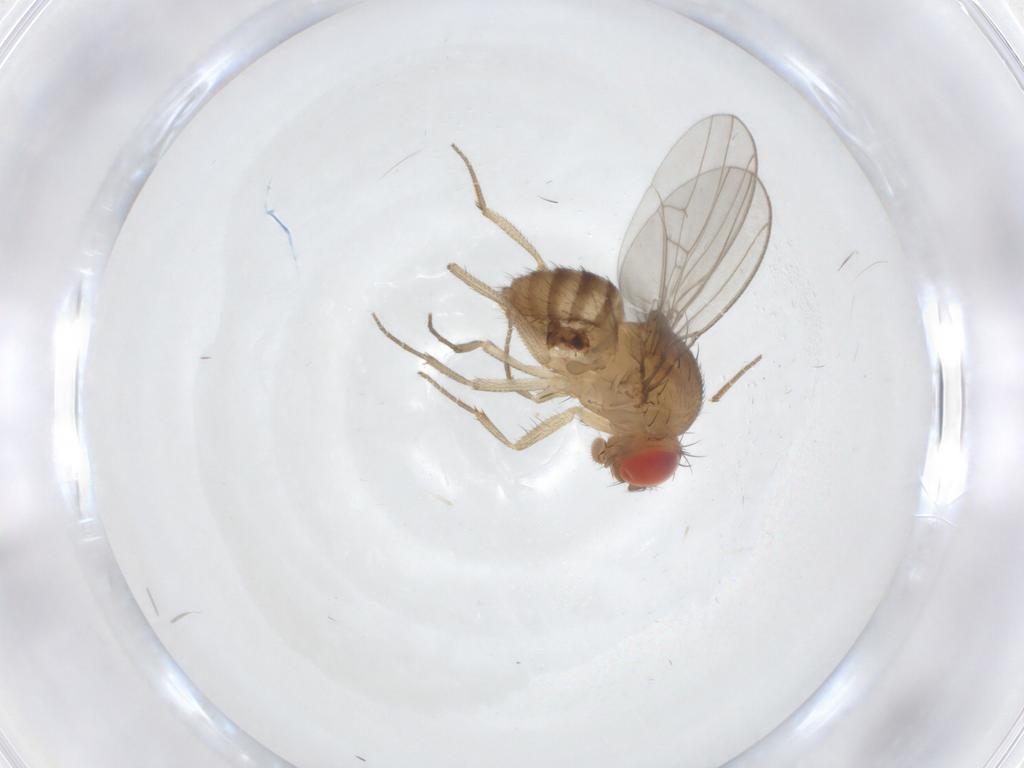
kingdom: Animalia
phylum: Arthropoda
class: Insecta
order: Diptera
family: Drosophilidae
